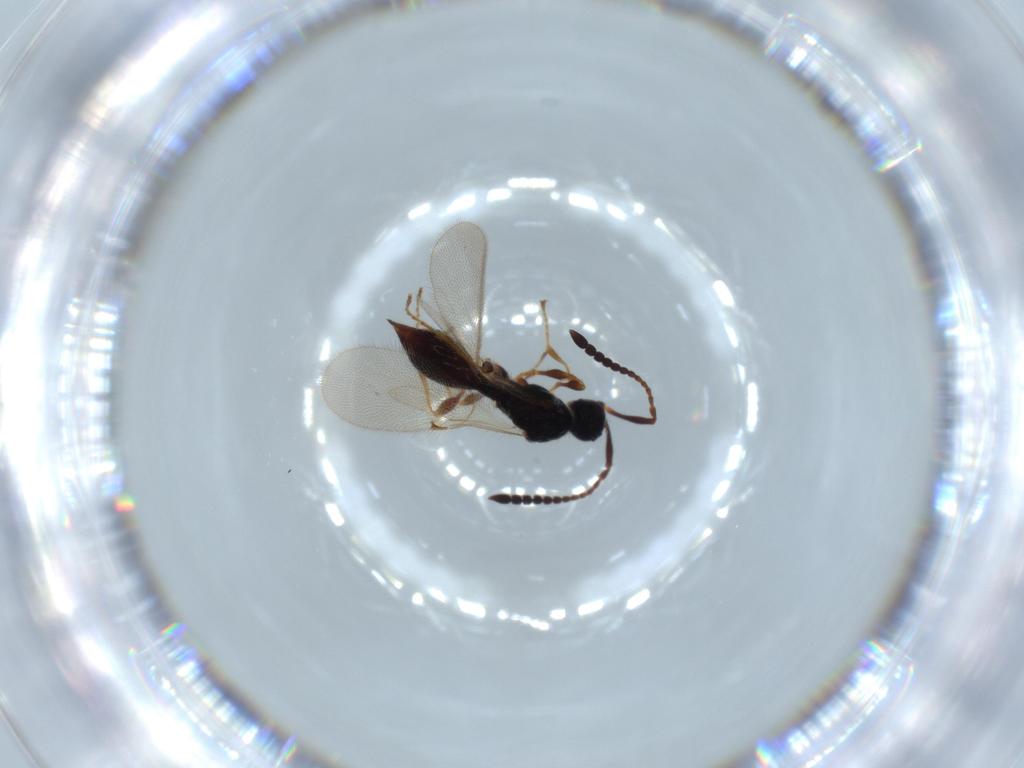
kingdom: Animalia
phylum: Arthropoda
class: Insecta
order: Hymenoptera
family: Diapriidae
